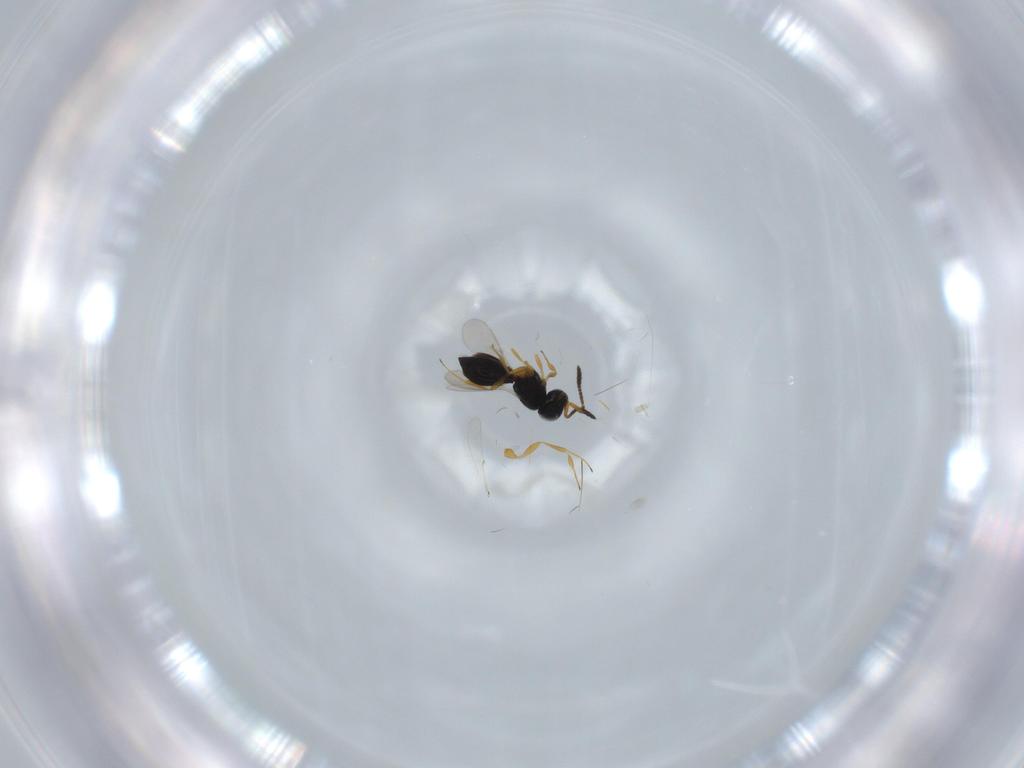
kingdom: Animalia
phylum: Arthropoda
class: Insecta
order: Hymenoptera
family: Scelionidae
